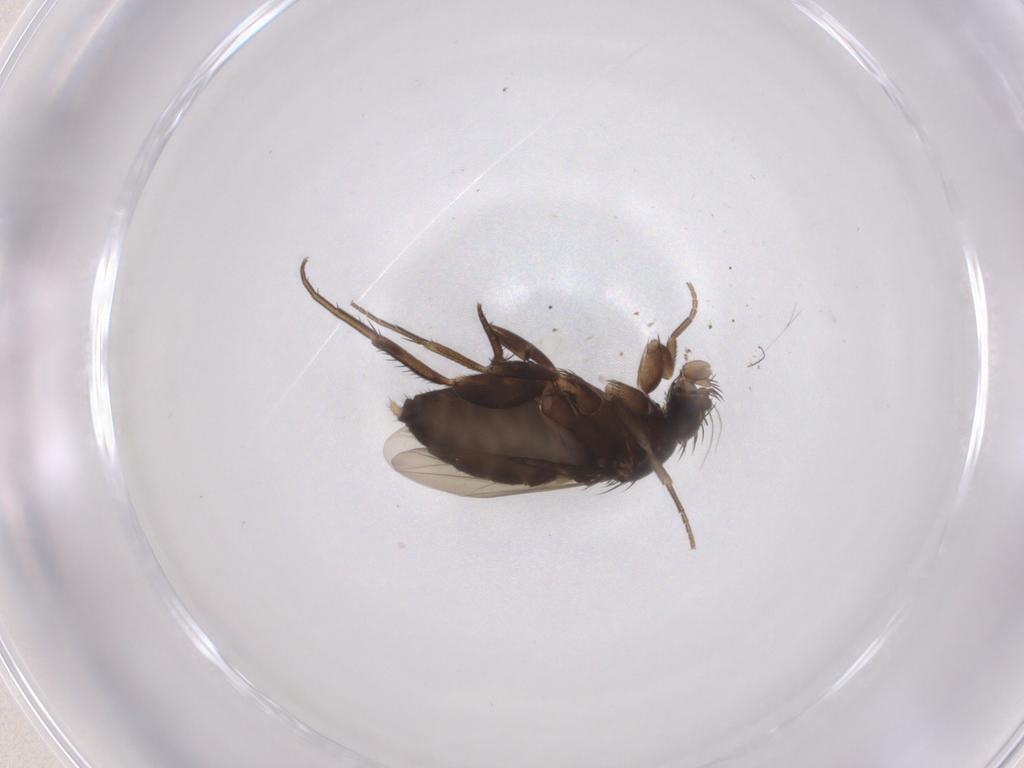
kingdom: Animalia
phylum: Arthropoda
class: Insecta
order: Diptera
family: Phoridae
